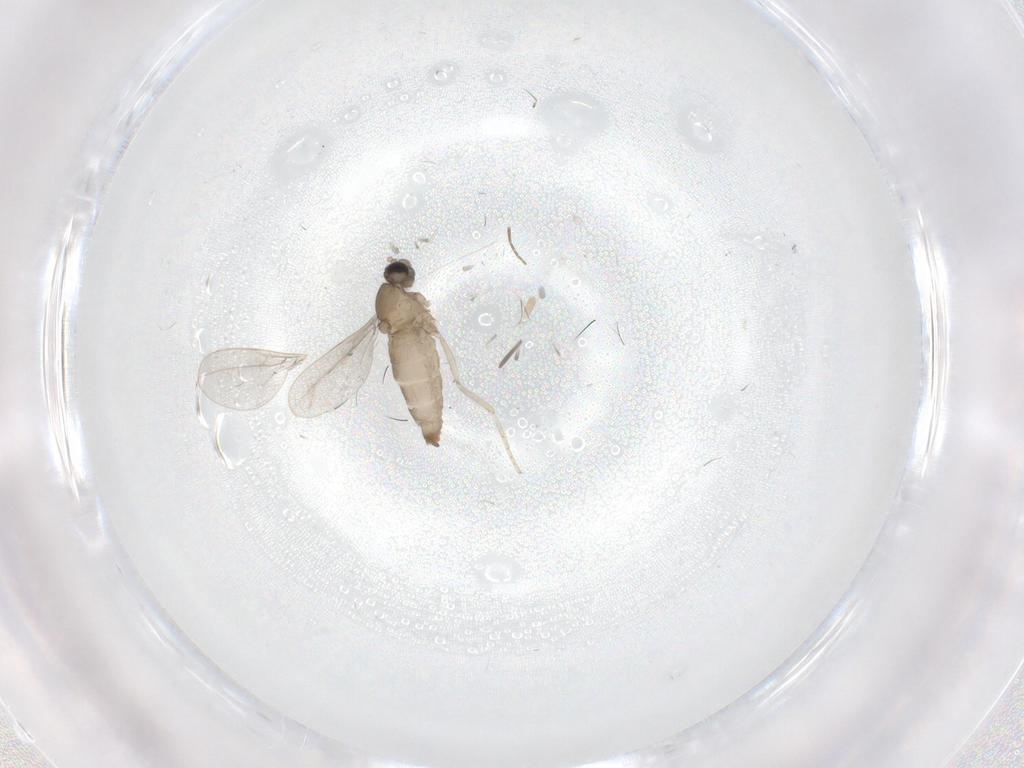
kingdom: Animalia
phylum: Arthropoda
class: Insecta
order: Diptera
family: Cecidomyiidae
